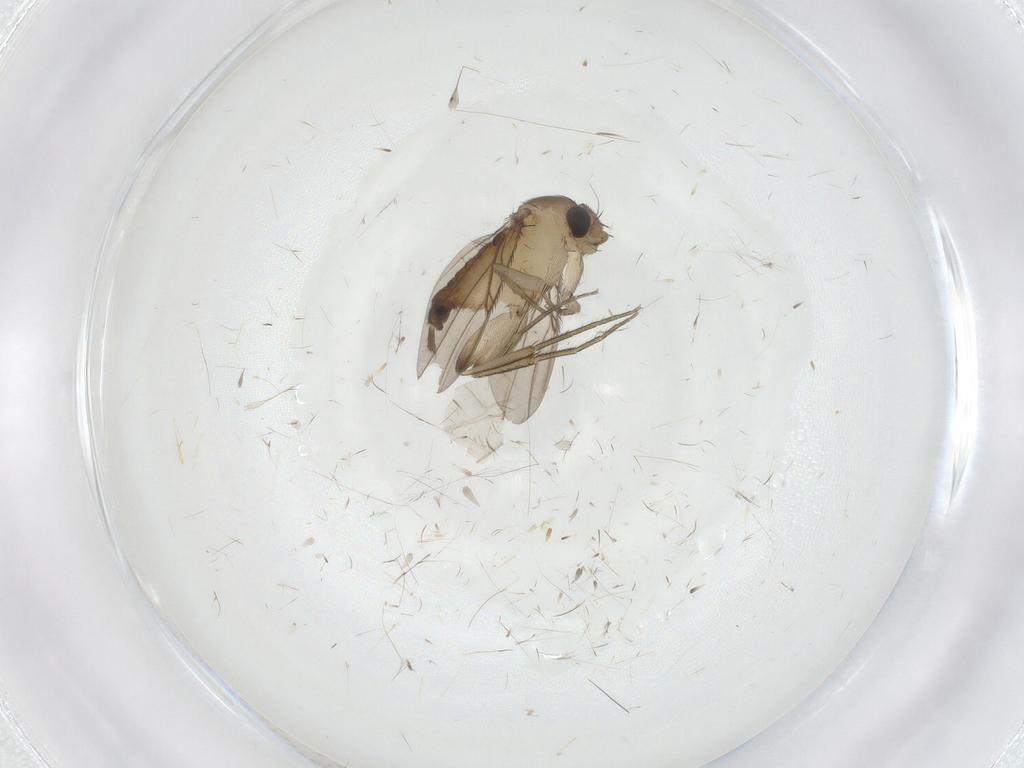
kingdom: Animalia
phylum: Arthropoda
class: Insecta
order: Diptera
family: Phoridae
